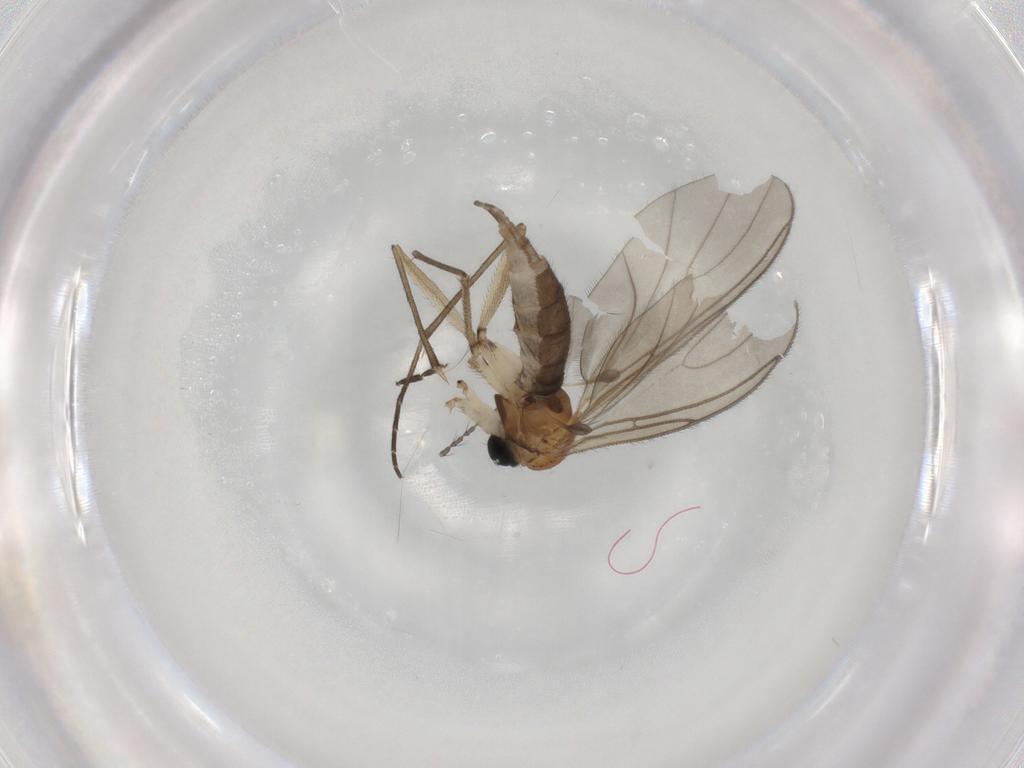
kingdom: Animalia
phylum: Arthropoda
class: Insecta
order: Diptera
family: Sciaridae
